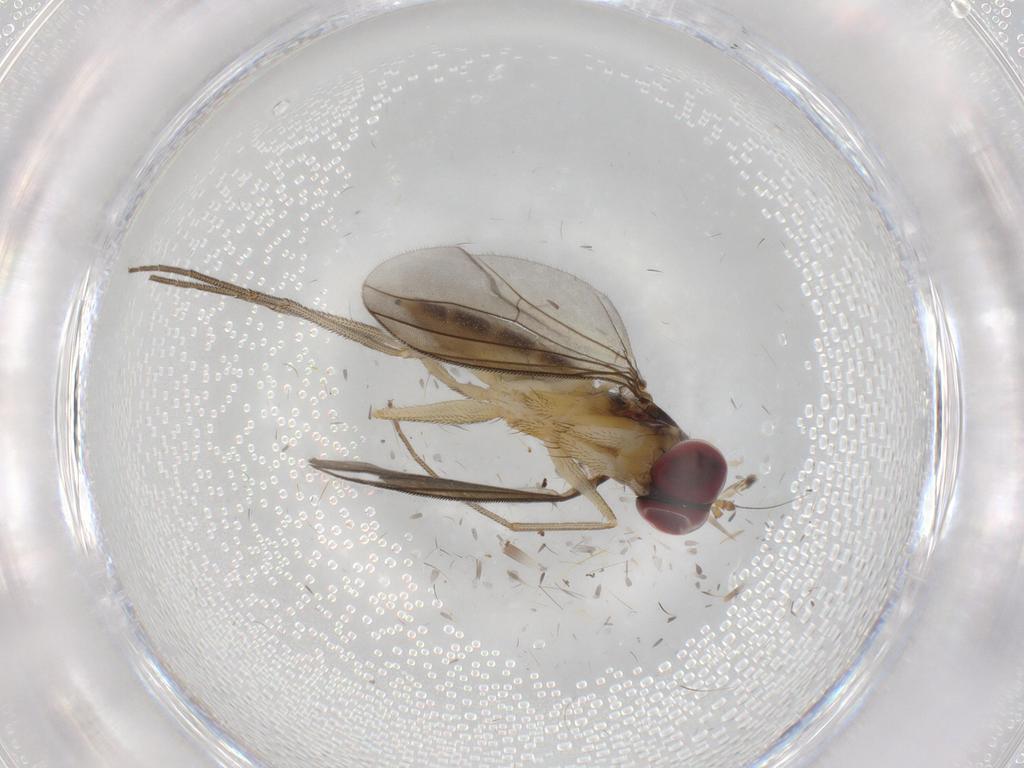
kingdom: Animalia
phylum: Arthropoda
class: Insecta
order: Diptera
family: Dolichopodidae
